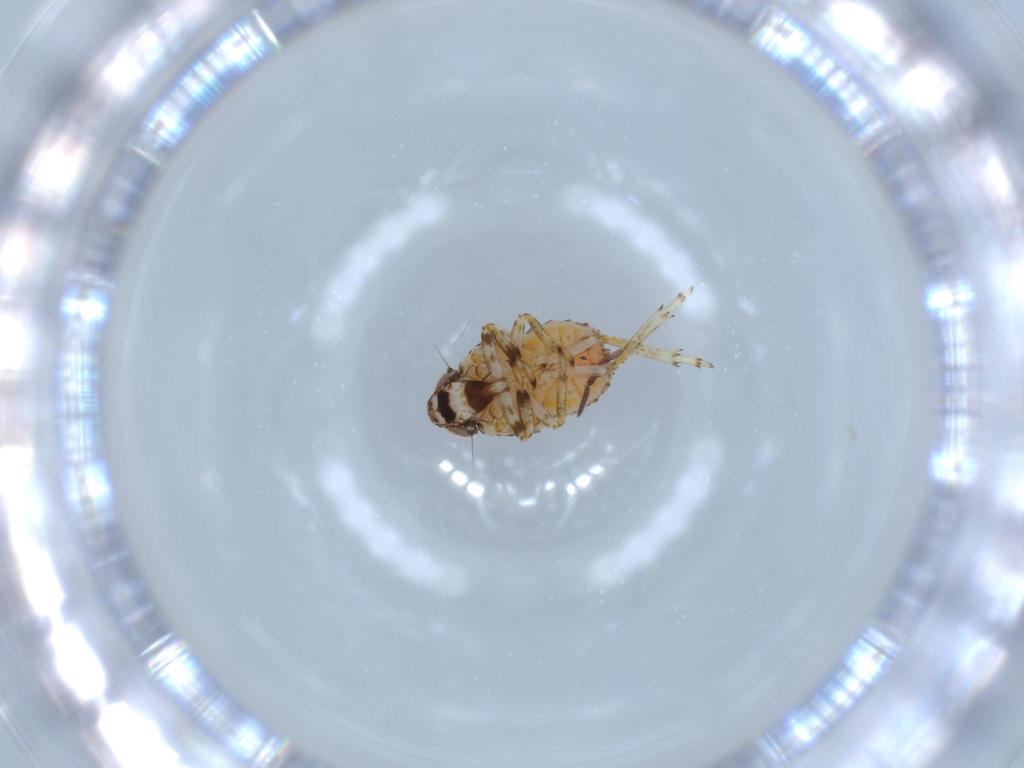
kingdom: Animalia
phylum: Arthropoda
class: Insecta
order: Hemiptera
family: Issidae
